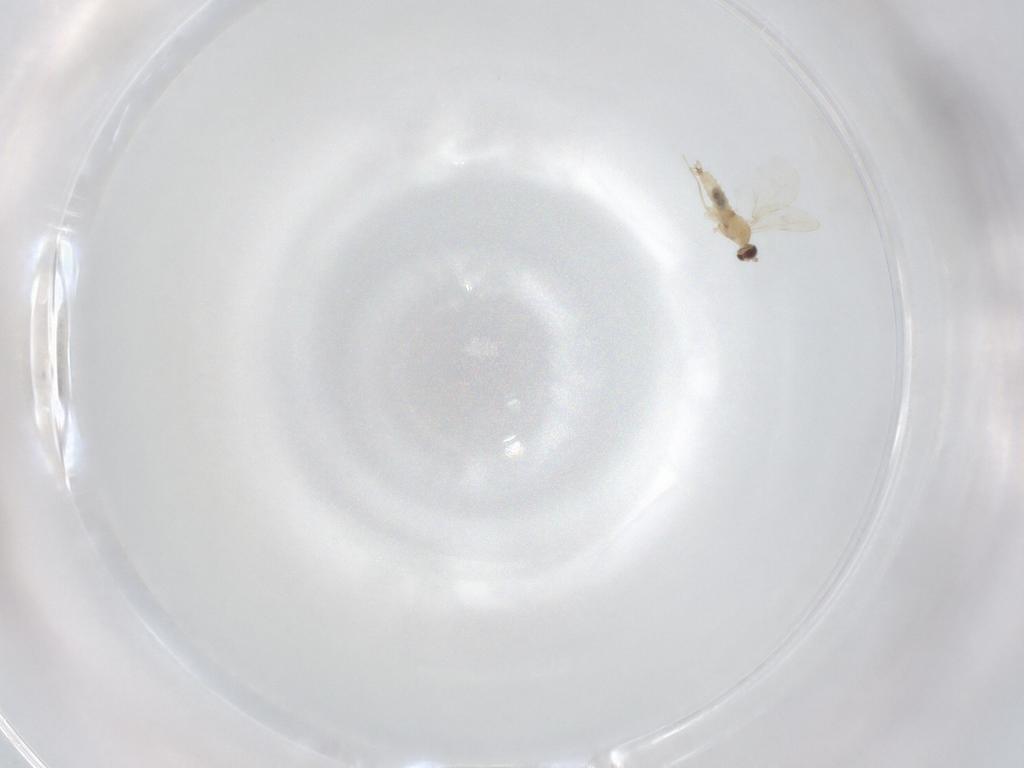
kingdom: Animalia
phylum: Arthropoda
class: Insecta
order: Diptera
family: Cecidomyiidae
